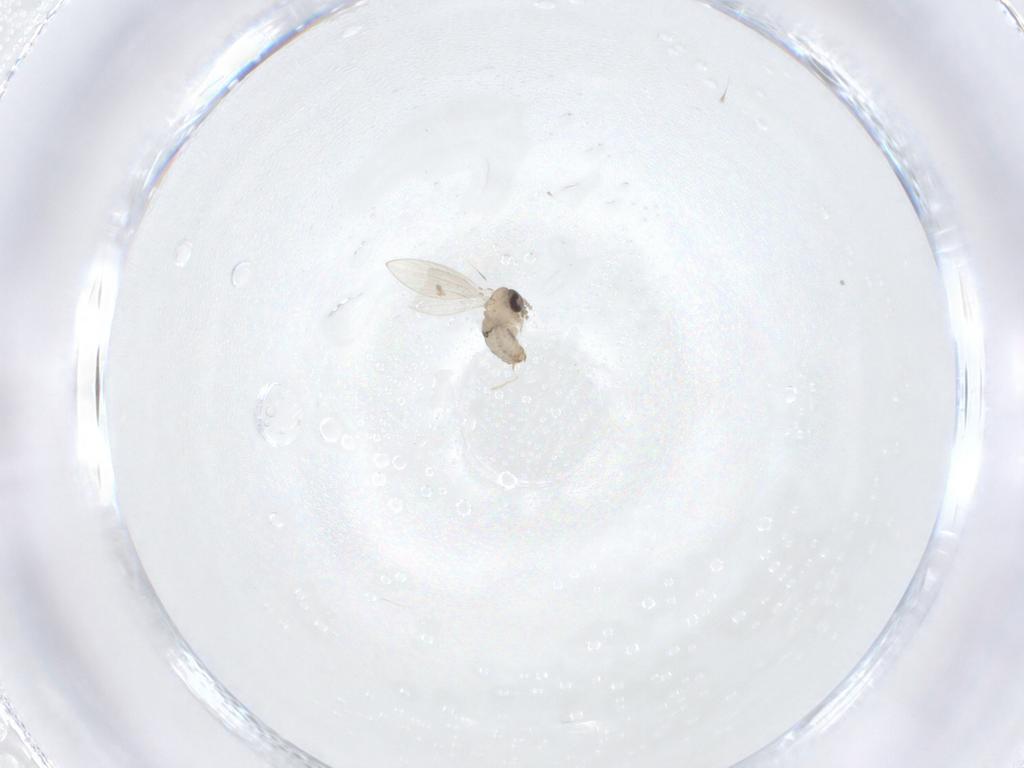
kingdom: Animalia
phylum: Arthropoda
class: Insecta
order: Diptera
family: Psychodidae
